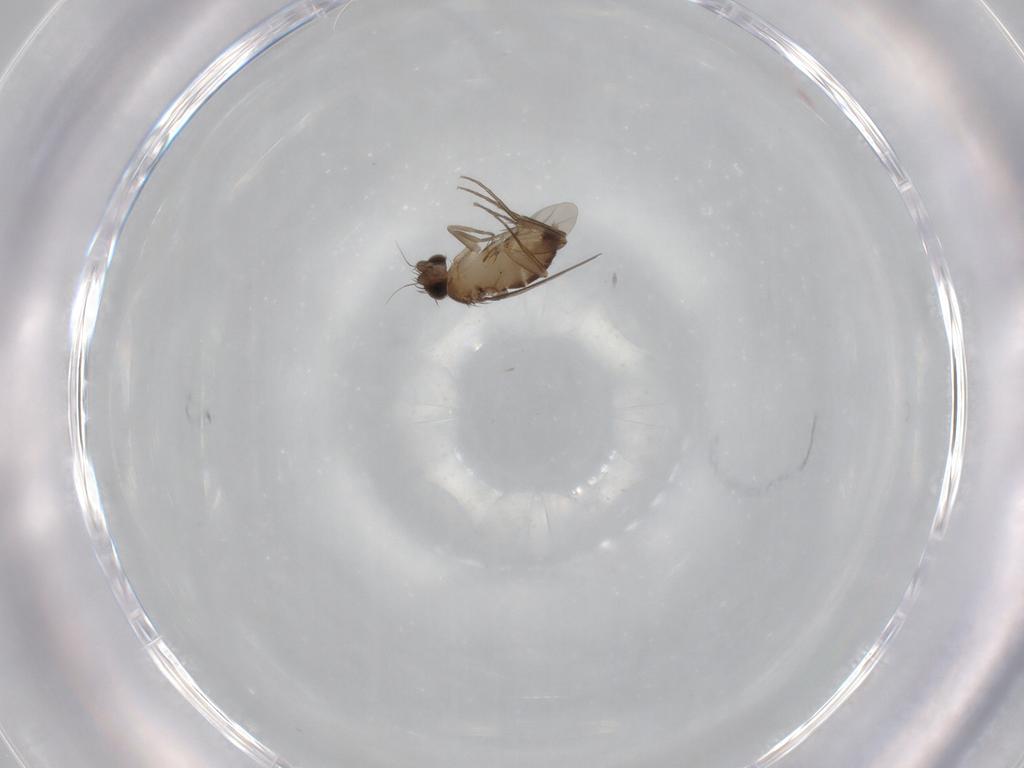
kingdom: Animalia
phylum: Arthropoda
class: Insecta
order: Diptera
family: Phoridae
